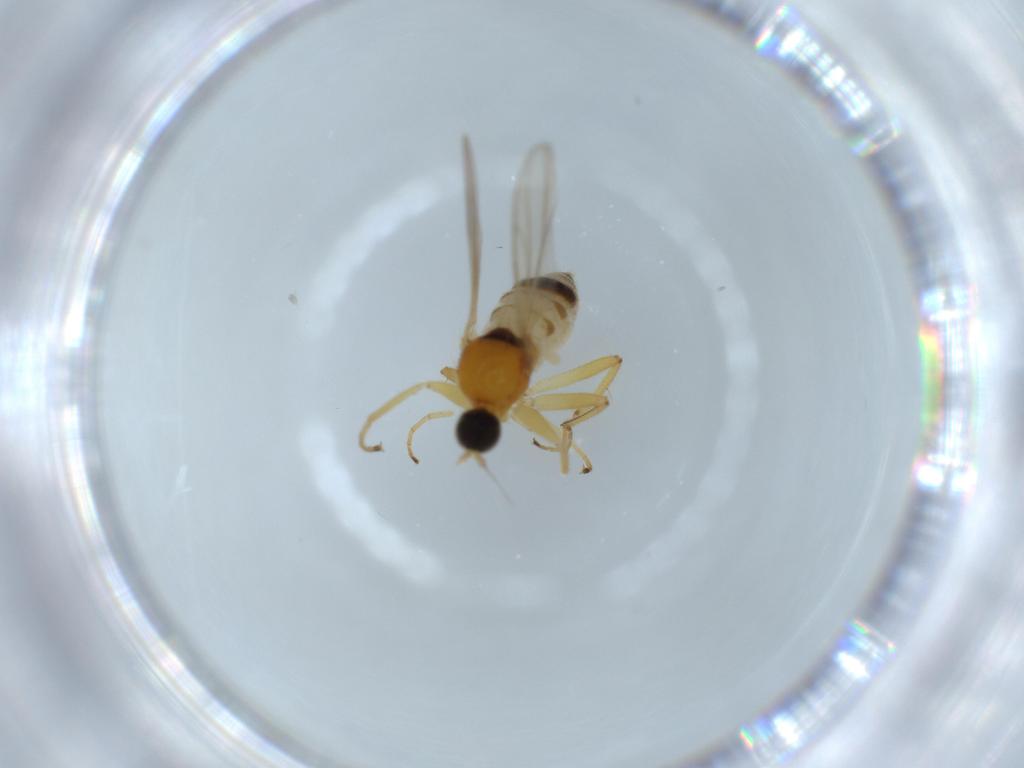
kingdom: Animalia
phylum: Arthropoda
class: Insecta
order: Diptera
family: Hybotidae
